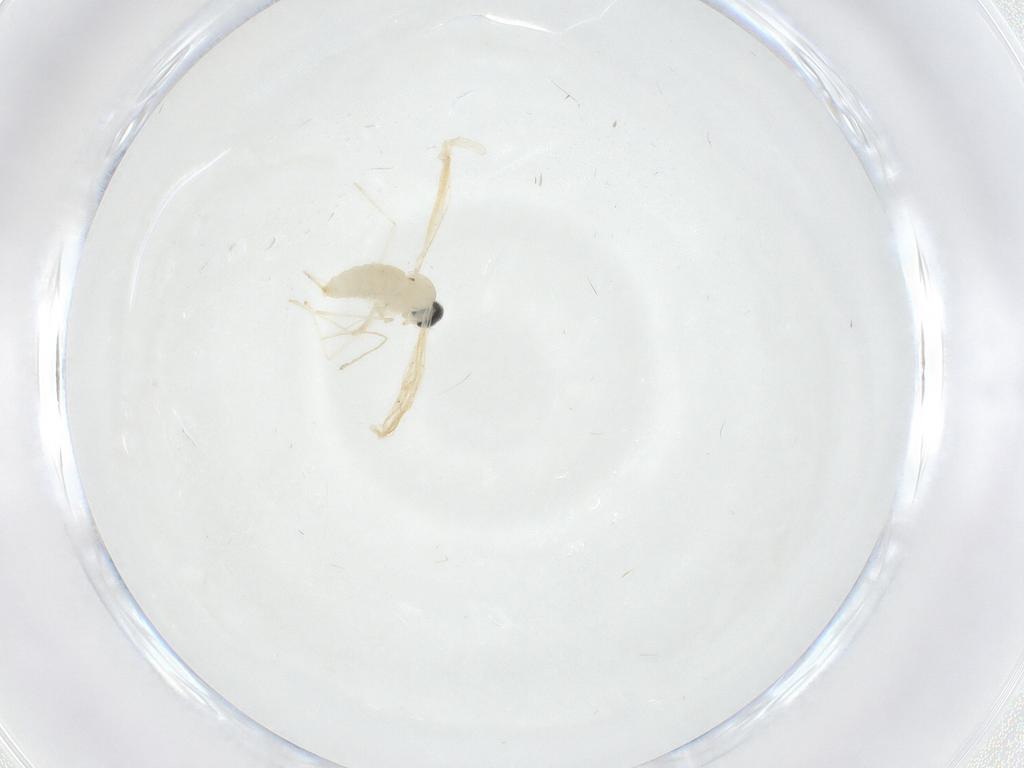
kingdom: Animalia
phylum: Arthropoda
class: Insecta
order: Diptera
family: Cecidomyiidae
